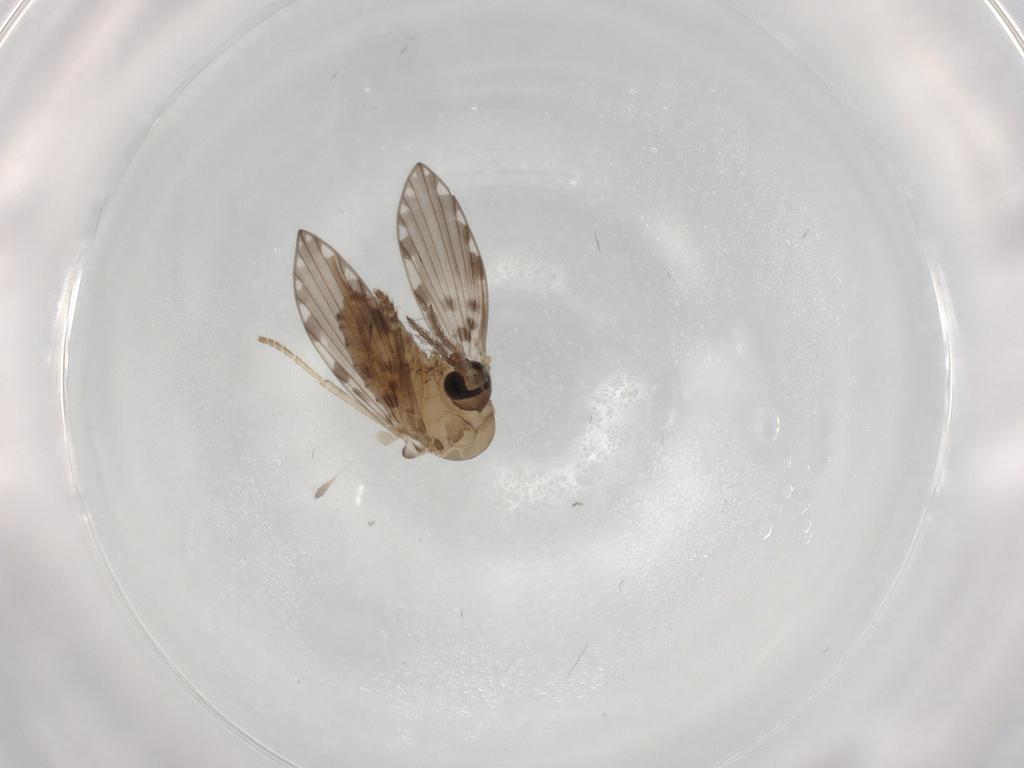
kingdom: Animalia
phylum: Arthropoda
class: Insecta
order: Diptera
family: Psychodidae
